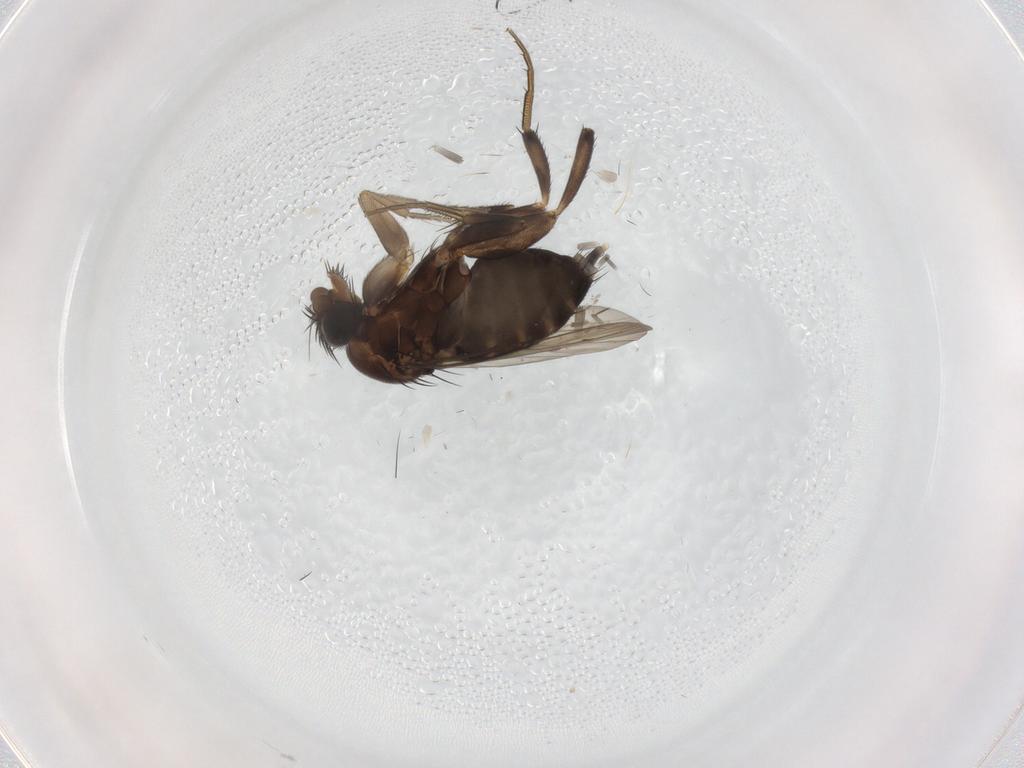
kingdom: Animalia
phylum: Arthropoda
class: Insecta
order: Diptera
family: Phoridae
